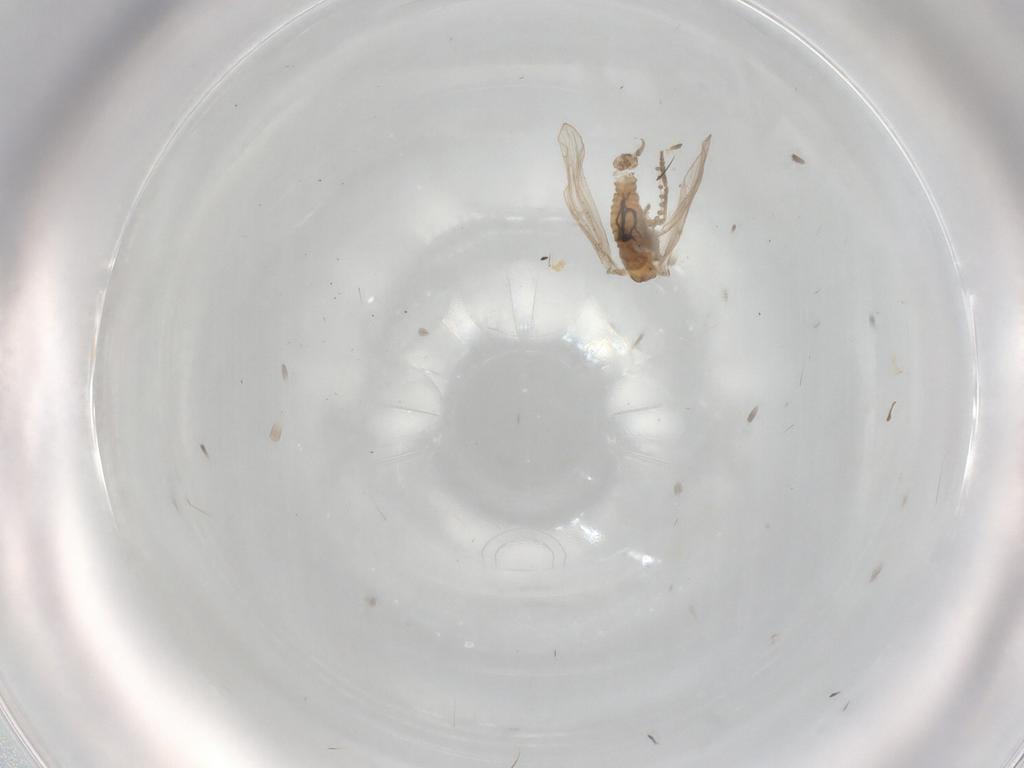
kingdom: Animalia
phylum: Arthropoda
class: Insecta
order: Diptera
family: Psychodidae
